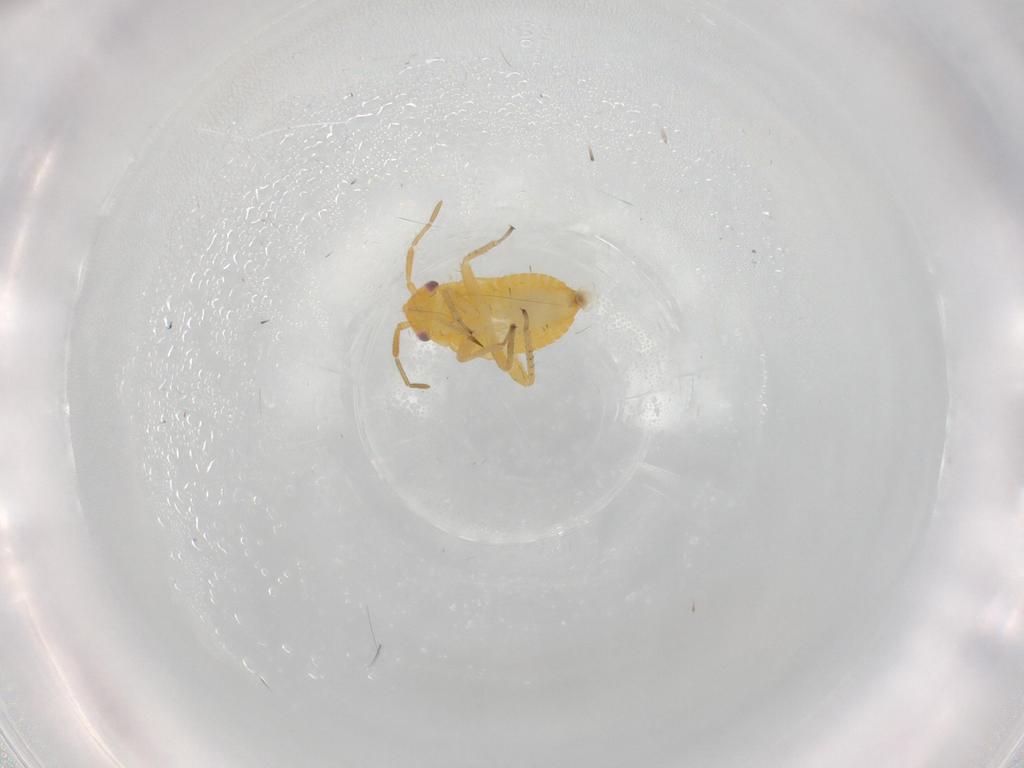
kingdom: Animalia
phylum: Arthropoda
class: Insecta
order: Hemiptera
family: Miridae
